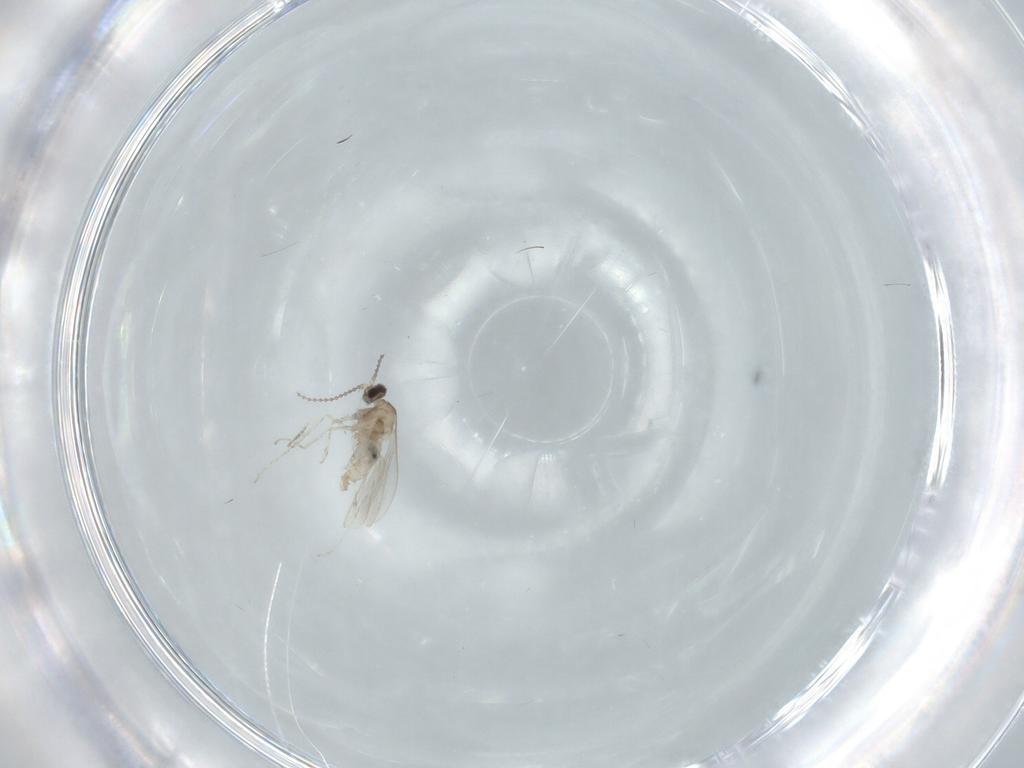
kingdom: Animalia
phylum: Arthropoda
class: Insecta
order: Diptera
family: Cecidomyiidae
